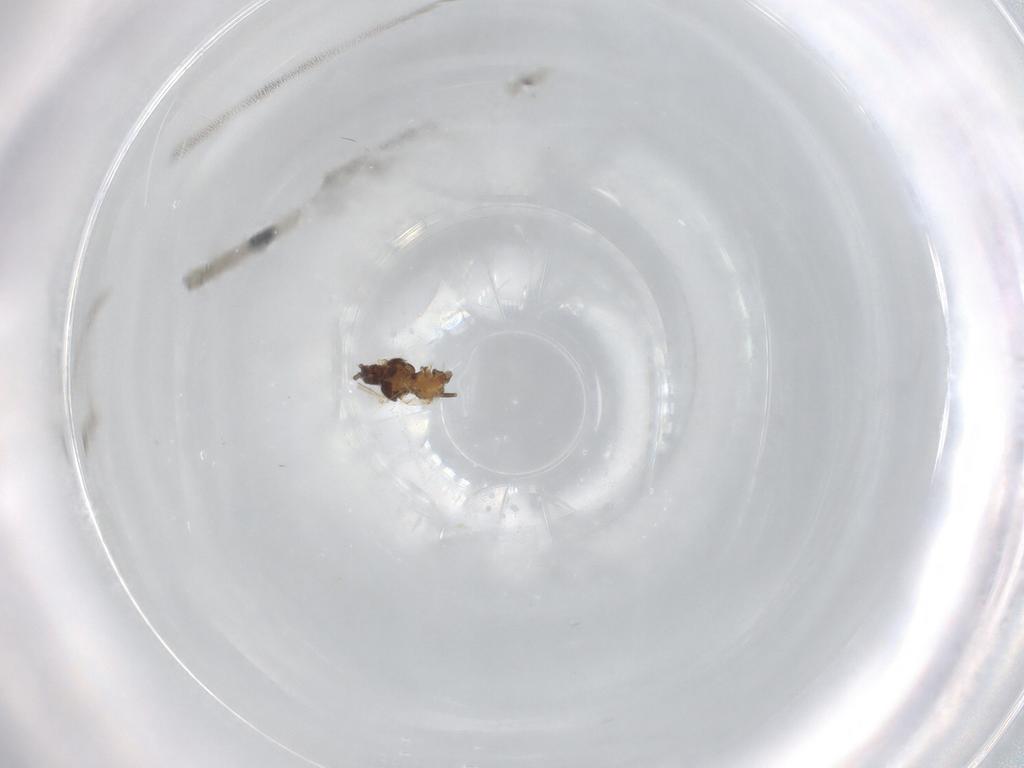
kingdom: Animalia
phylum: Arthropoda
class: Insecta
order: Hemiptera
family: Aphididae
